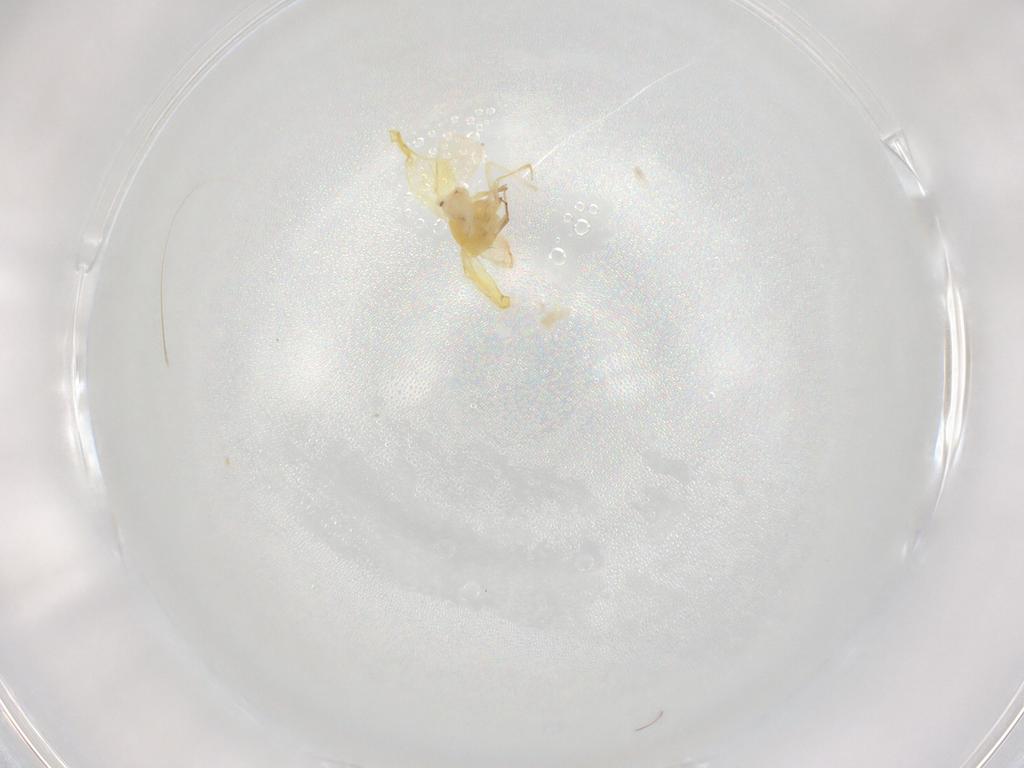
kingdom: Animalia
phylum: Arthropoda
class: Insecta
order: Hemiptera
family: Aleyrodidae
